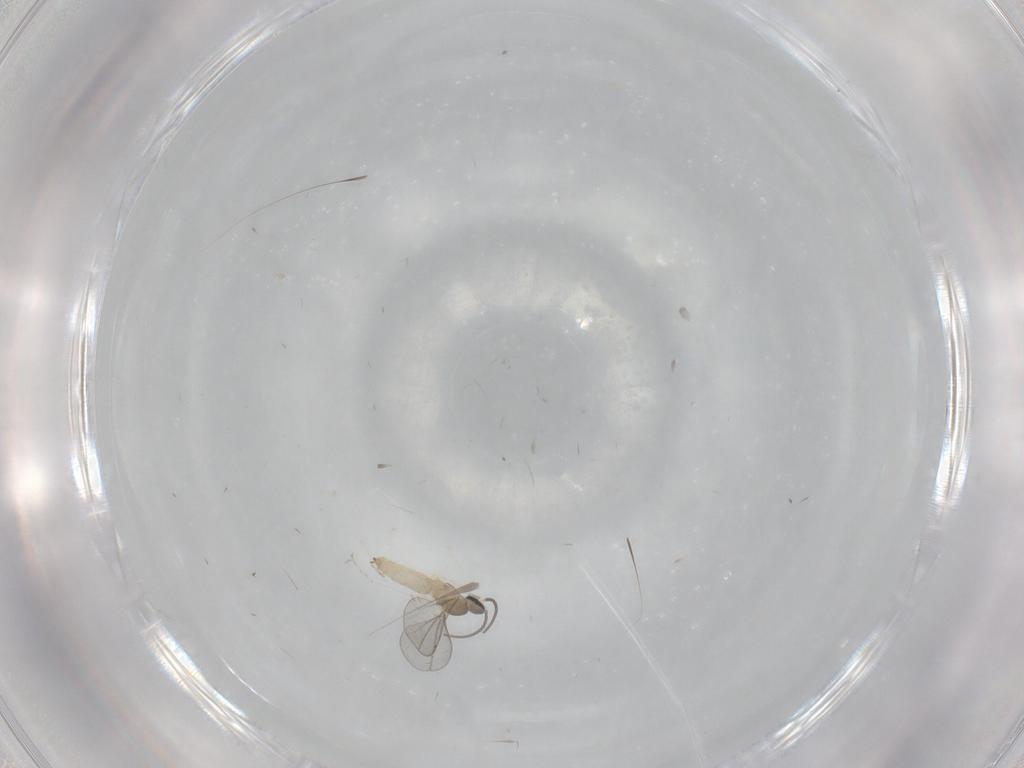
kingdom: Animalia
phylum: Arthropoda
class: Insecta
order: Diptera
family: Cecidomyiidae
